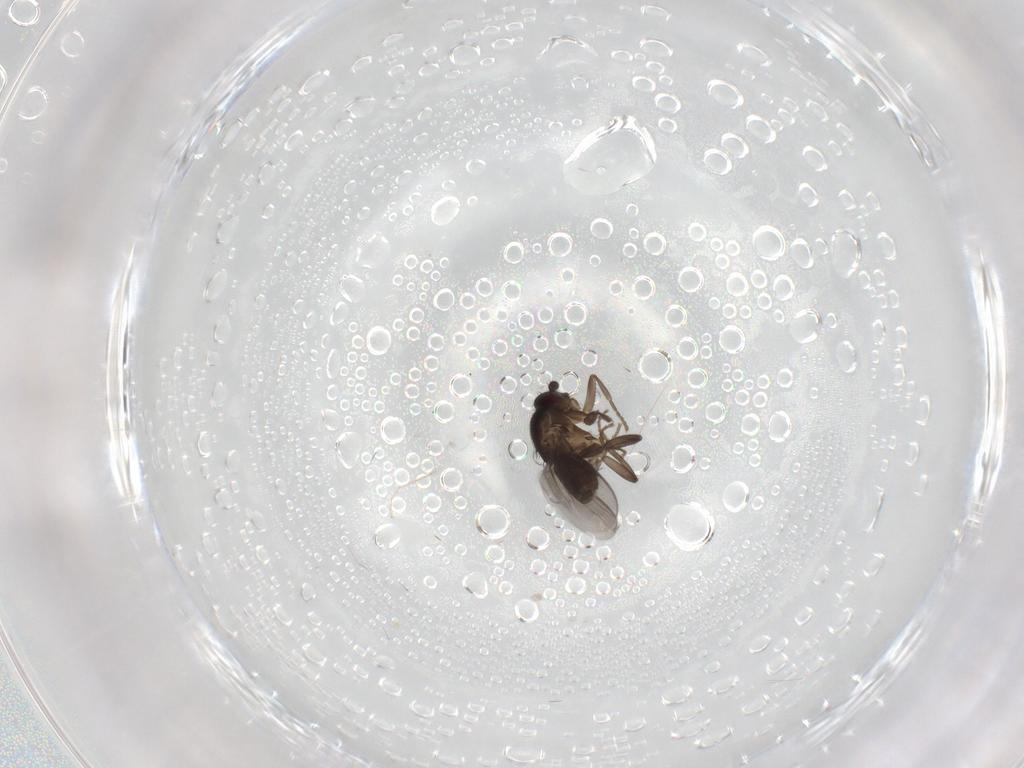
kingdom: Animalia
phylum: Arthropoda
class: Insecta
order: Diptera
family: Cecidomyiidae
